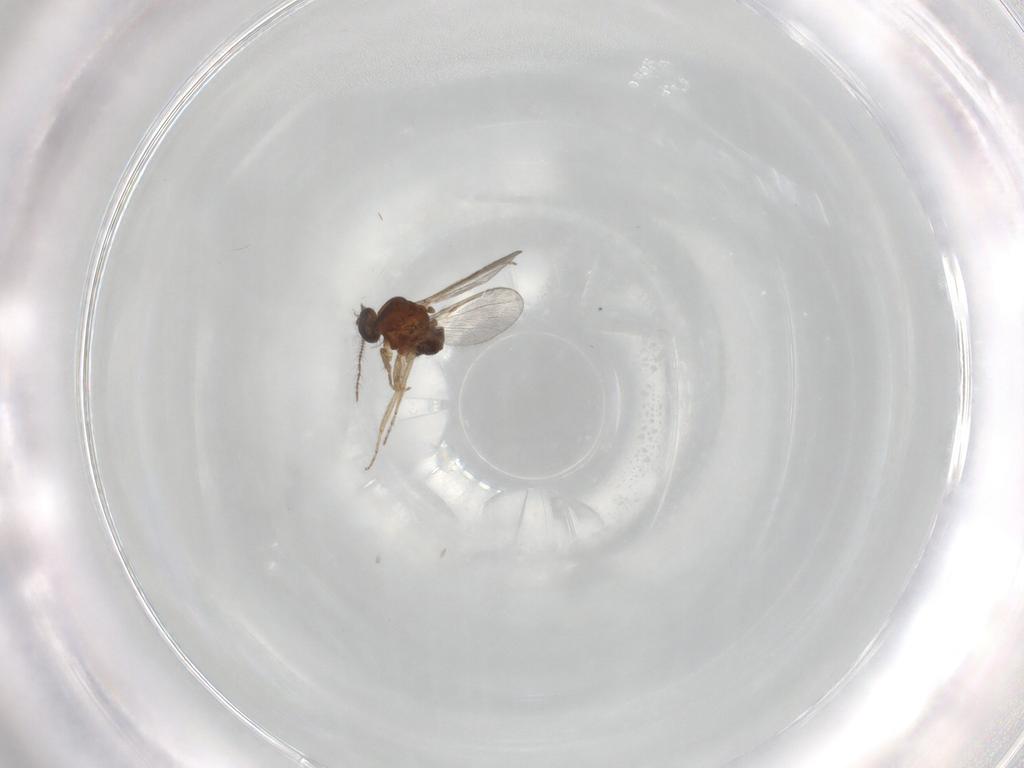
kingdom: Animalia
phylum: Arthropoda
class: Insecta
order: Diptera
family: Ceratopogonidae
